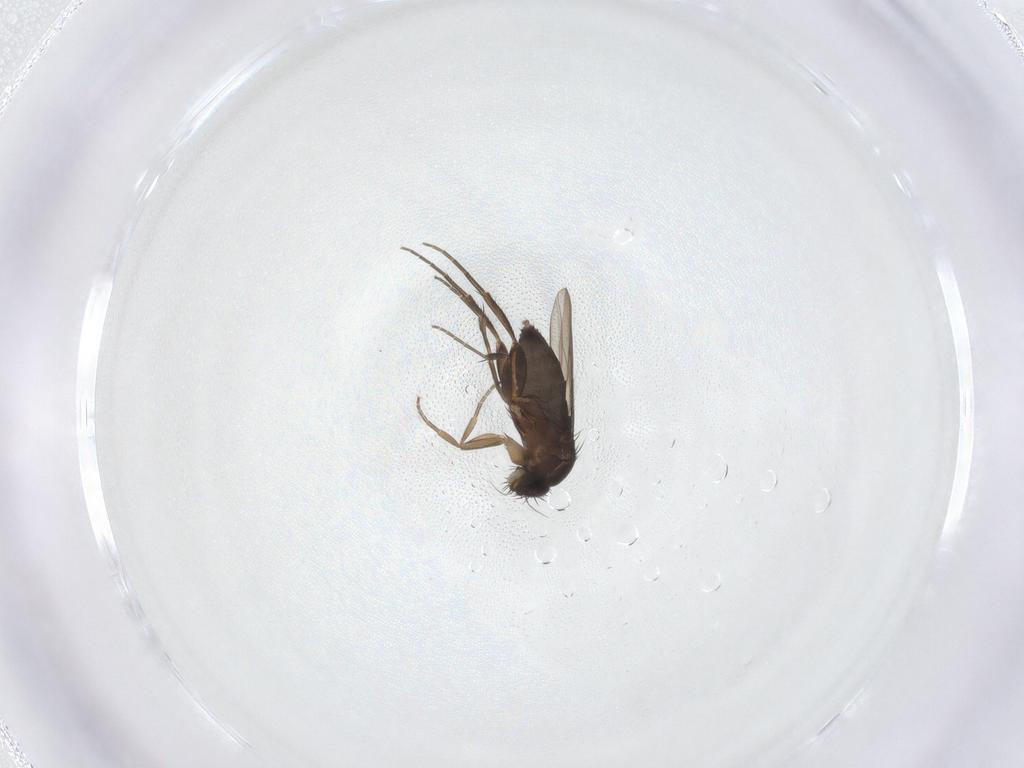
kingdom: Animalia
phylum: Arthropoda
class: Insecta
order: Diptera
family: Phoridae
